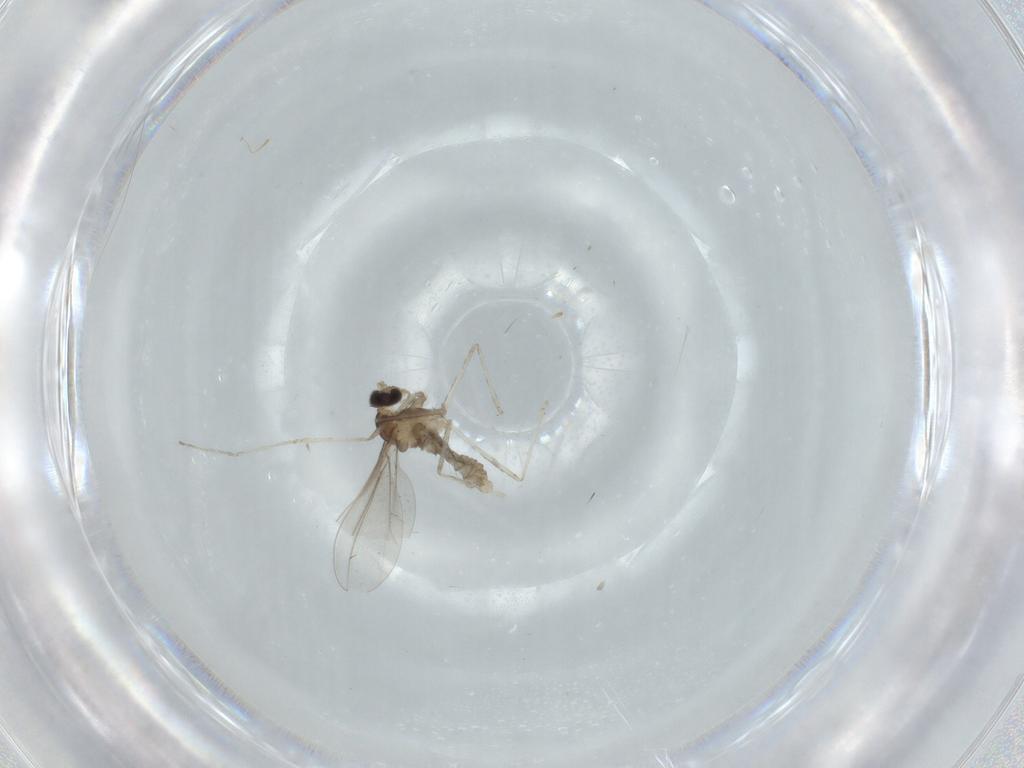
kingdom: Animalia
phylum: Arthropoda
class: Insecta
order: Diptera
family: Cecidomyiidae
